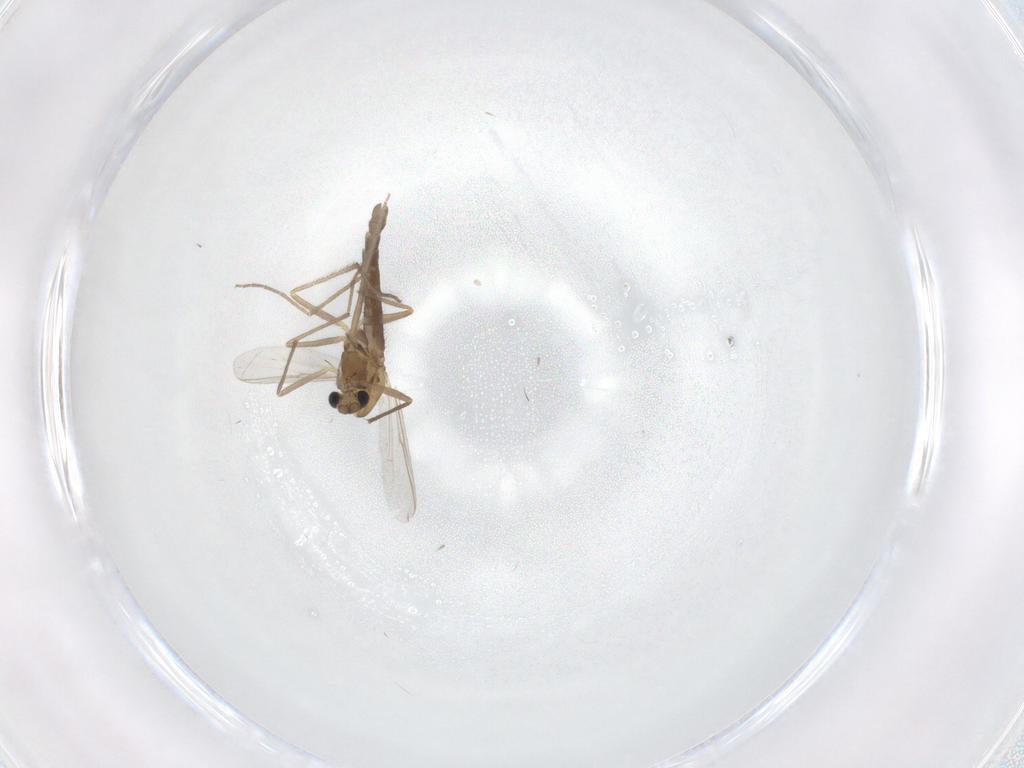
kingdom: Animalia
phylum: Arthropoda
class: Insecta
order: Diptera
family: Chironomidae
